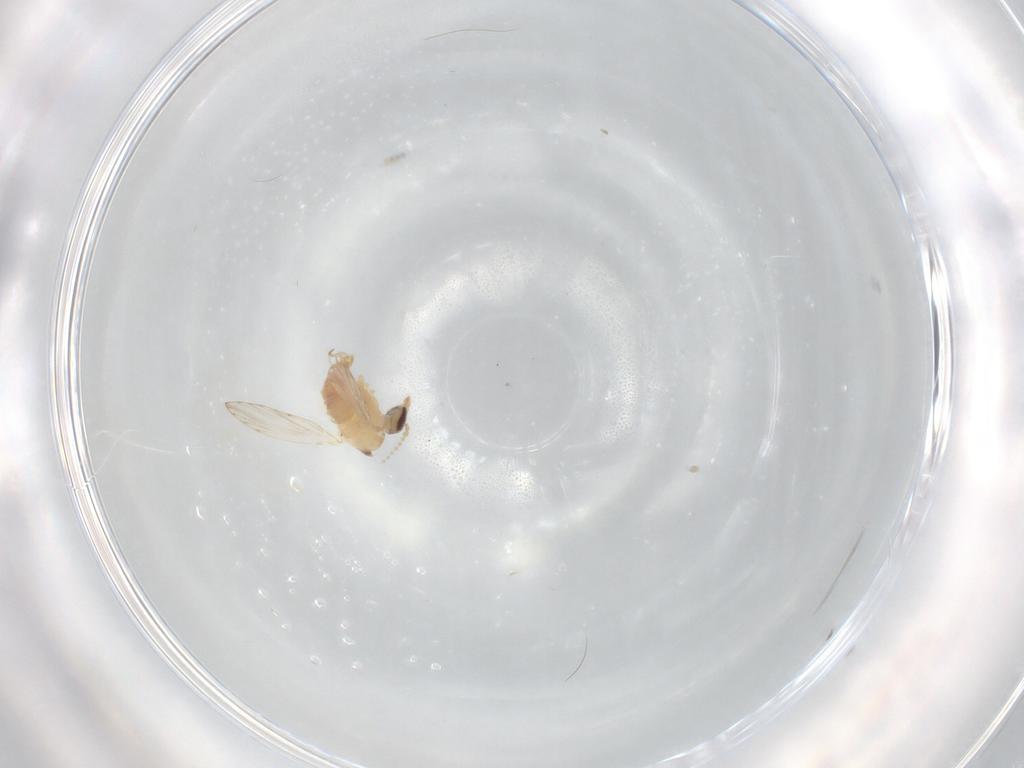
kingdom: Animalia
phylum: Arthropoda
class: Insecta
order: Diptera
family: Psychodidae
